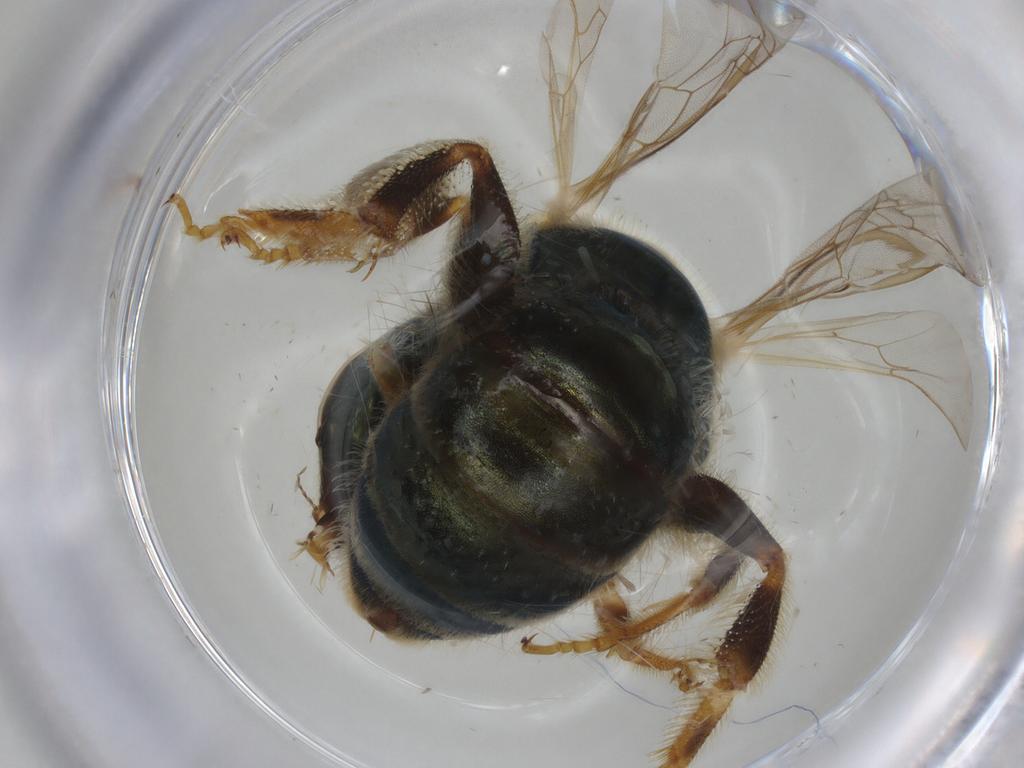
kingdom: Animalia
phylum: Arthropoda
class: Insecta
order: Hymenoptera
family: Halictidae
